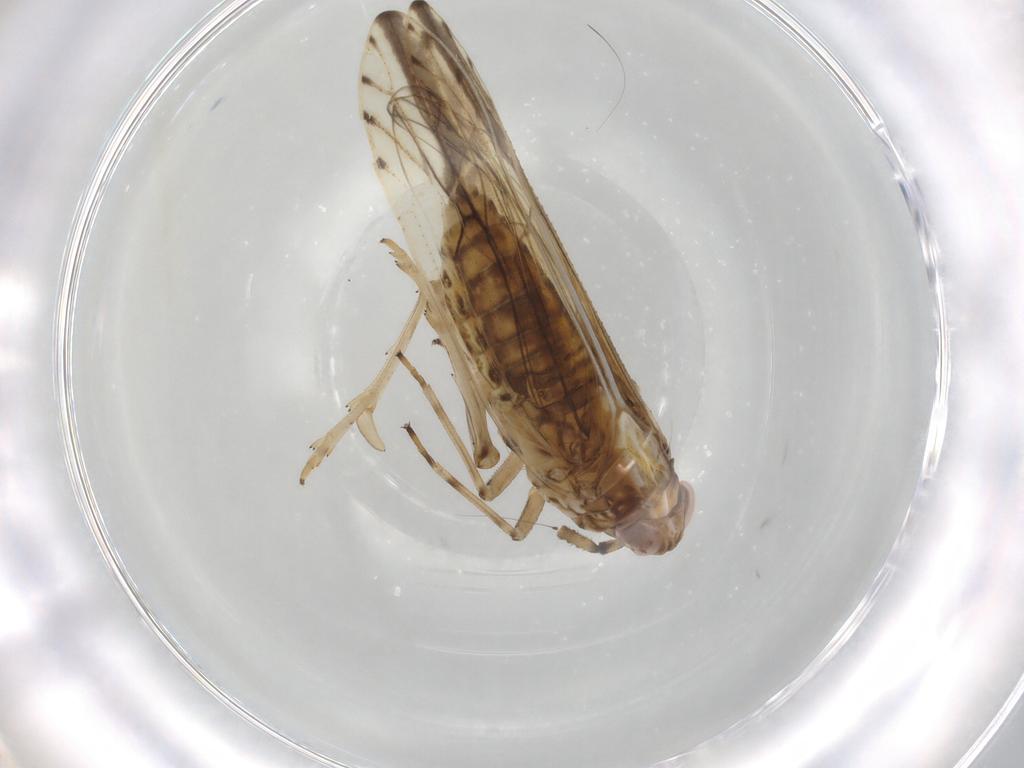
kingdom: Animalia
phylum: Arthropoda
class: Insecta
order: Hemiptera
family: Delphacidae
